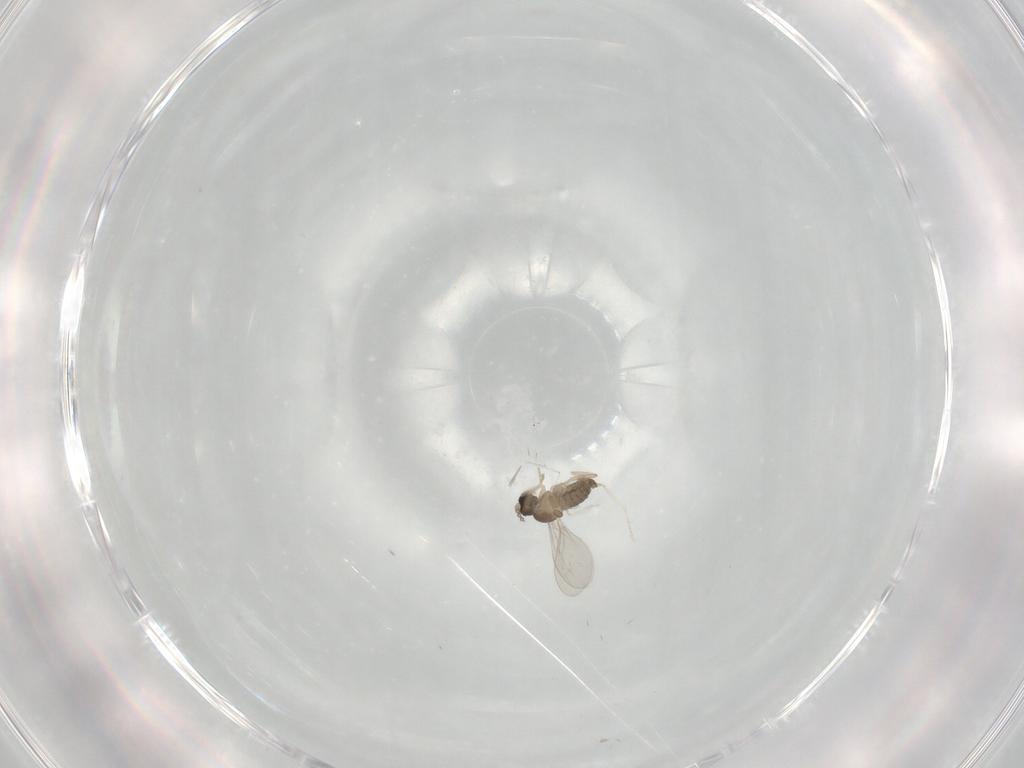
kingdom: Animalia
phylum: Arthropoda
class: Insecta
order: Diptera
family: Cecidomyiidae
